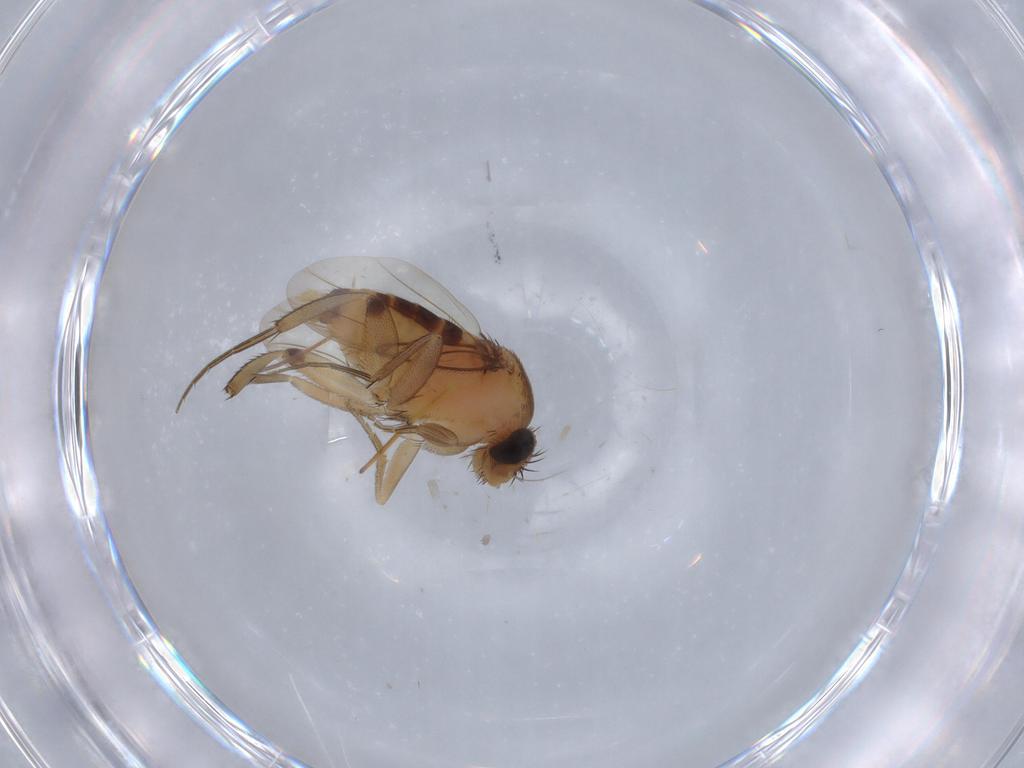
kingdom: Animalia
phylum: Arthropoda
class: Insecta
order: Diptera
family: Phoridae
